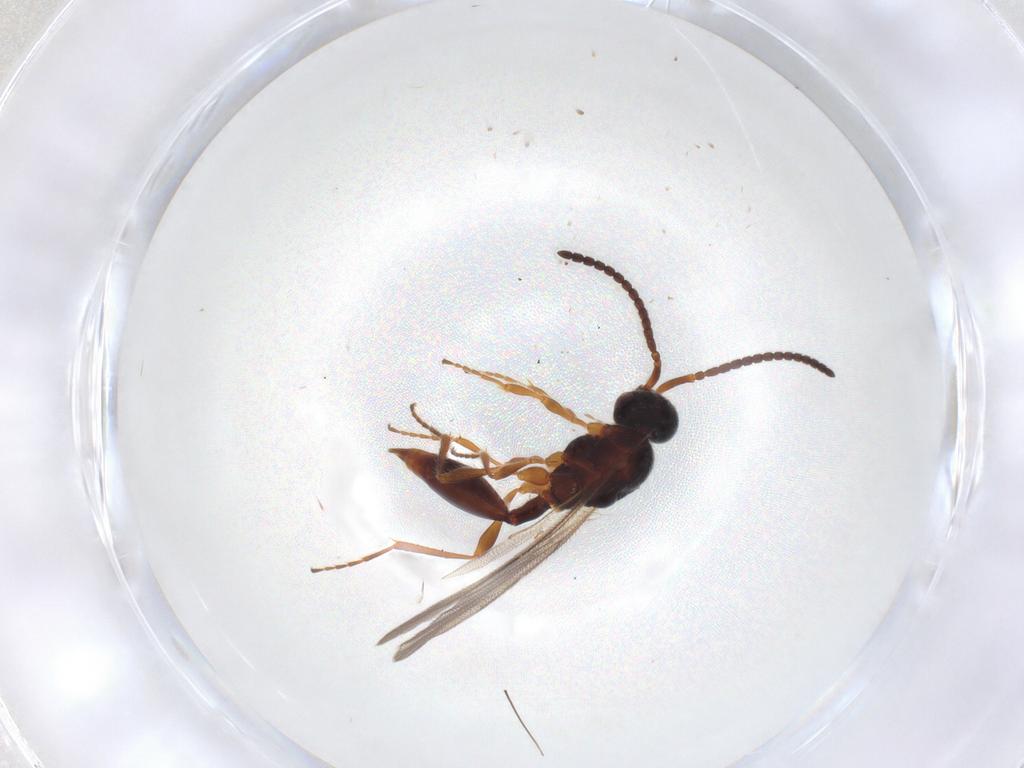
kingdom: Animalia
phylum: Arthropoda
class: Insecta
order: Hymenoptera
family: Diapriidae
